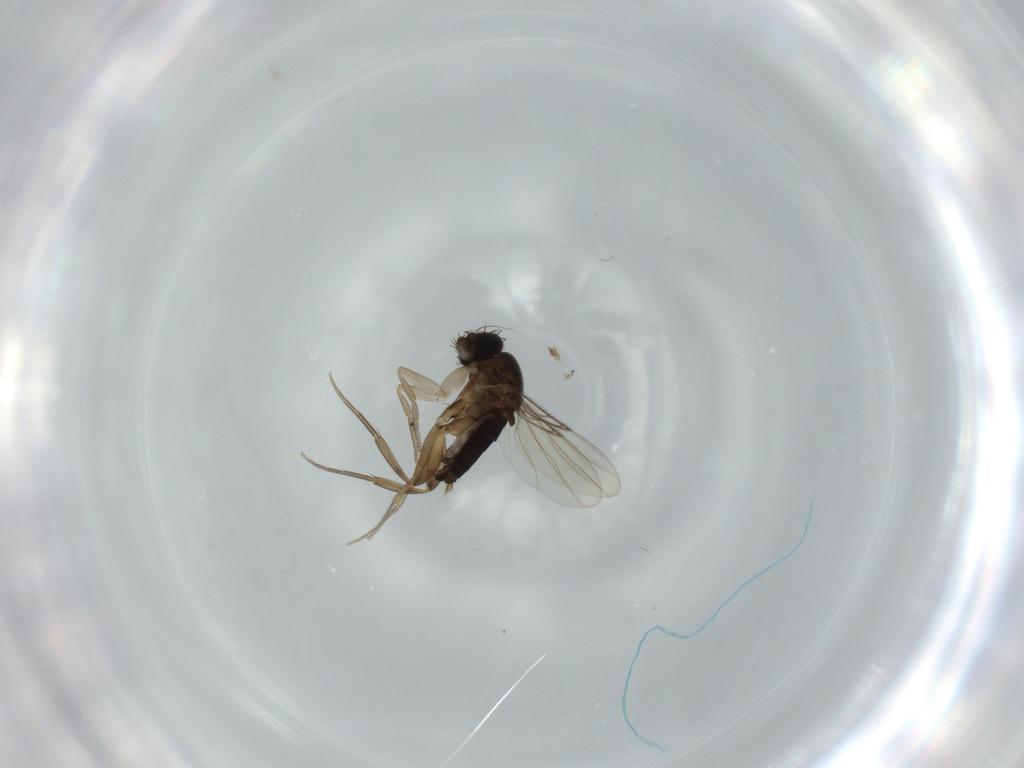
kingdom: Animalia
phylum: Arthropoda
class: Insecta
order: Diptera
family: Phoridae
